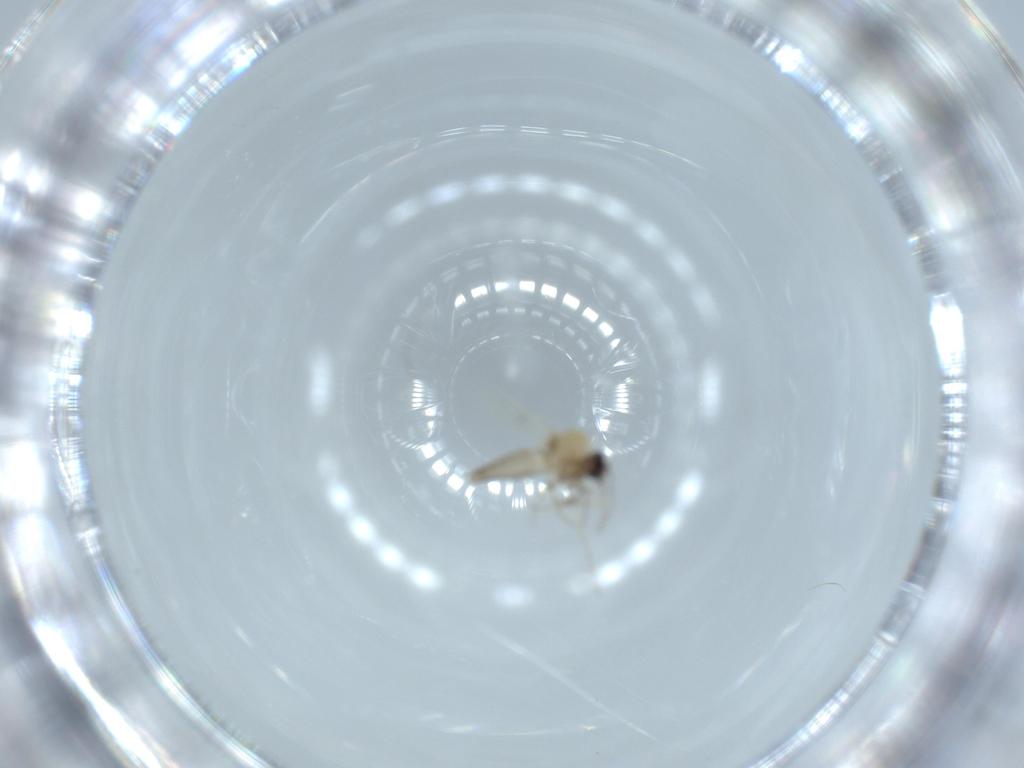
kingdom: Animalia
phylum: Arthropoda
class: Insecta
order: Diptera
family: Ceratopogonidae
